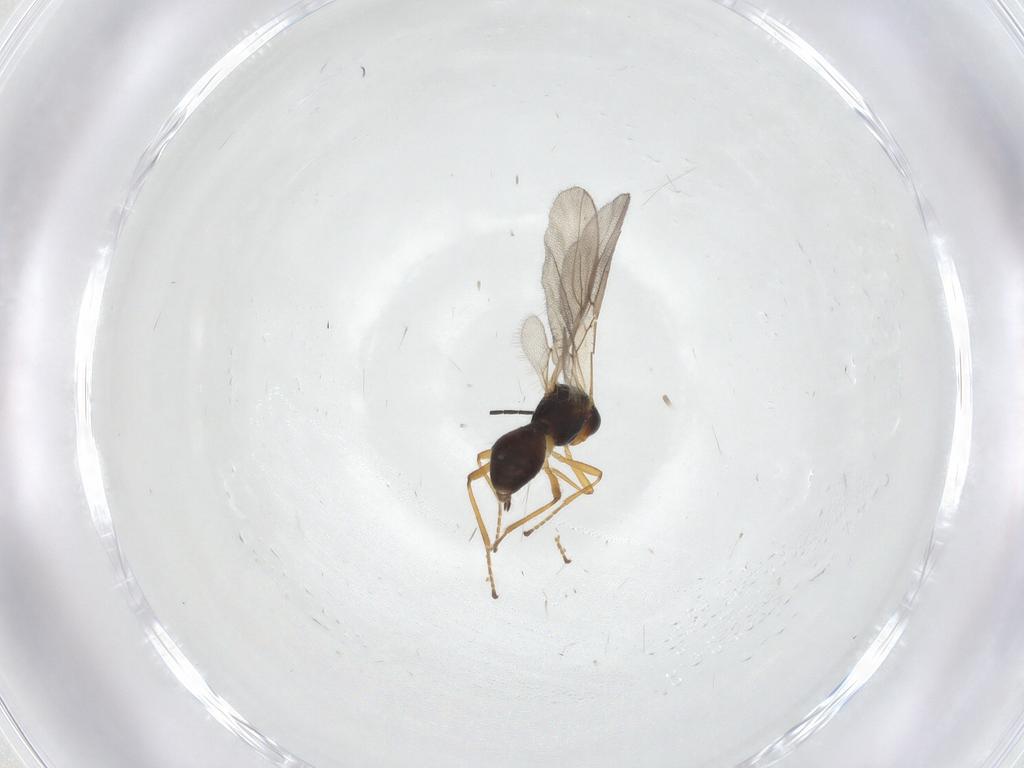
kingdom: Animalia
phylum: Arthropoda
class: Insecta
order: Hymenoptera
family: Braconidae
